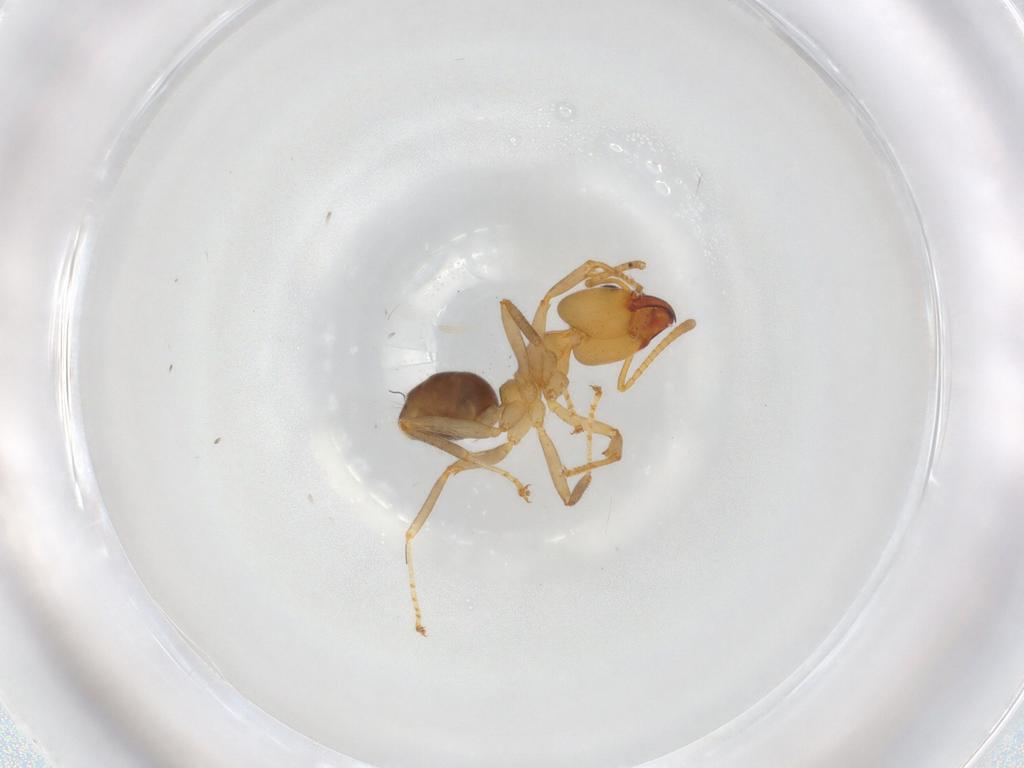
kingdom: Animalia
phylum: Arthropoda
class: Insecta
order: Hymenoptera
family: Formicidae
